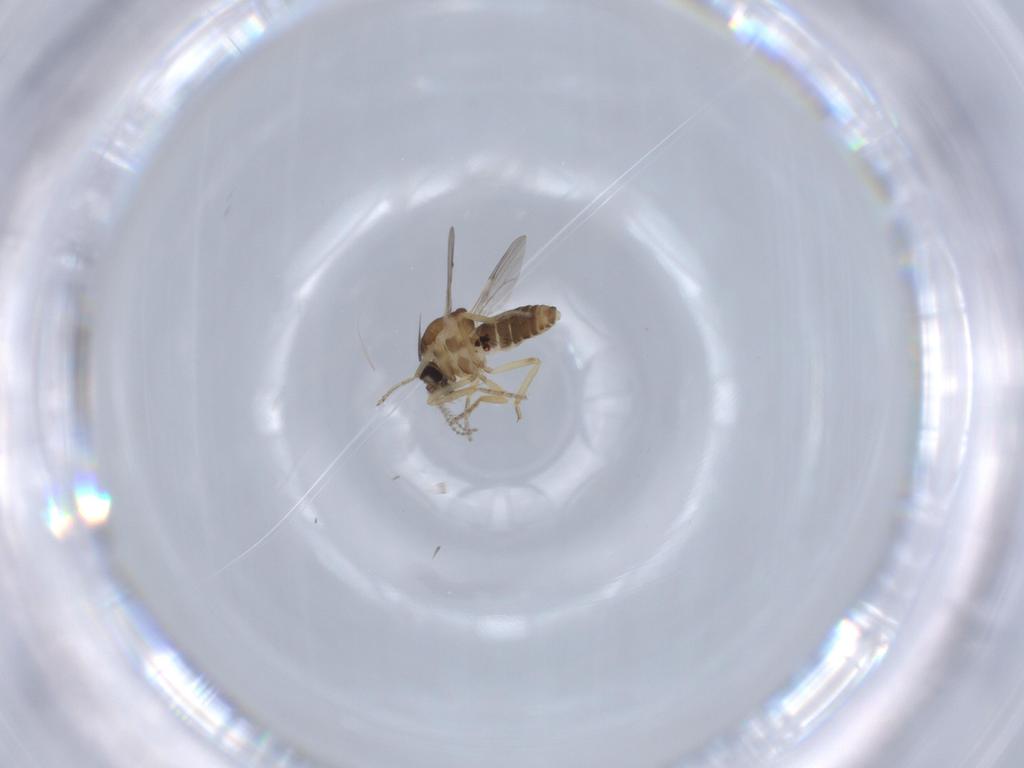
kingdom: Animalia
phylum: Arthropoda
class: Insecta
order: Diptera
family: Ceratopogonidae
